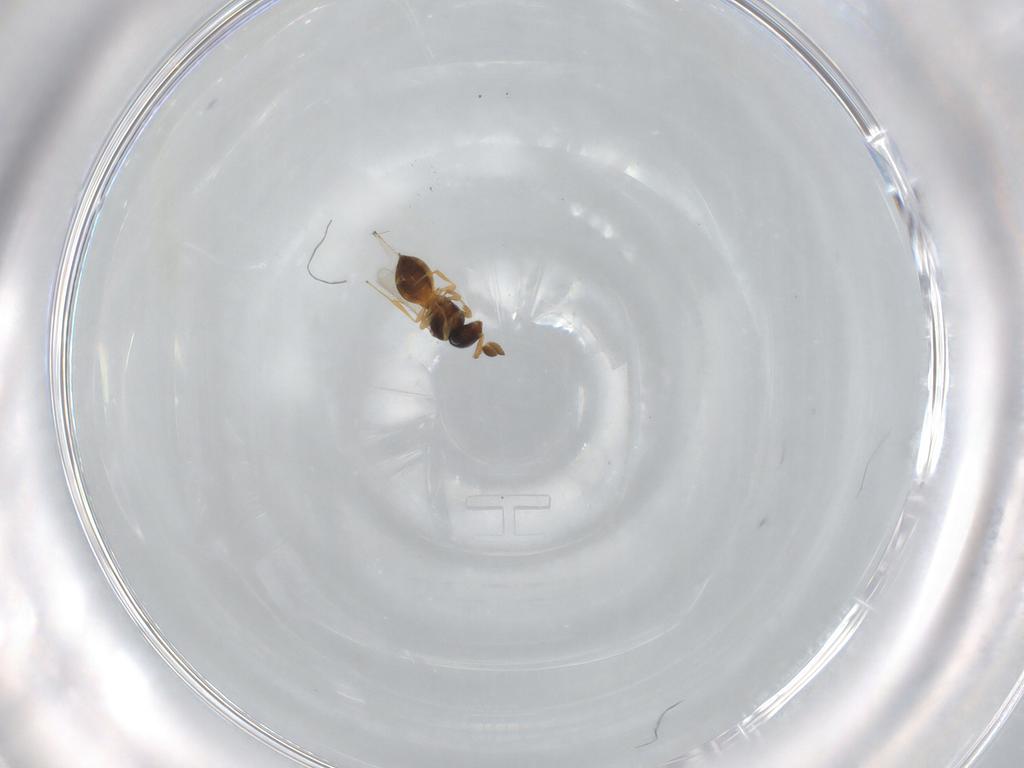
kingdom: Animalia
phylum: Arthropoda
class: Insecta
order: Hymenoptera
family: Scelionidae
